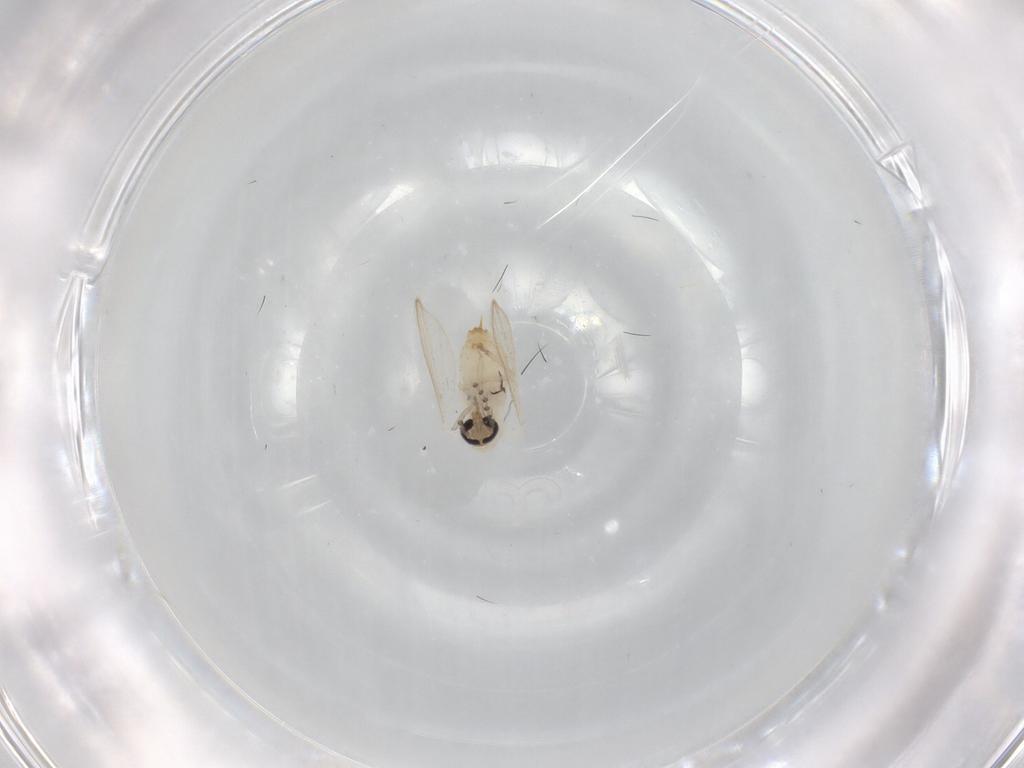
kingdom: Animalia
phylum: Arthropoda
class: Insecta
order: Diptera
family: Psychodidae
